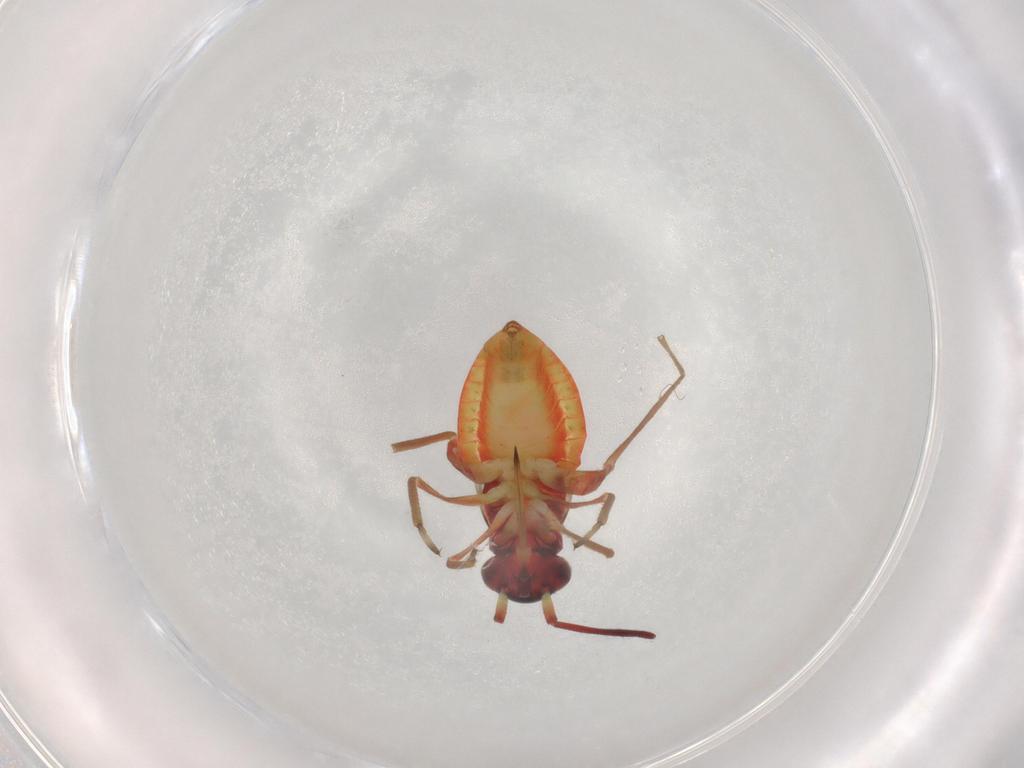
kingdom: Animalia
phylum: Arthropoda
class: Insecta
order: Hemiptera
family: Miridae
